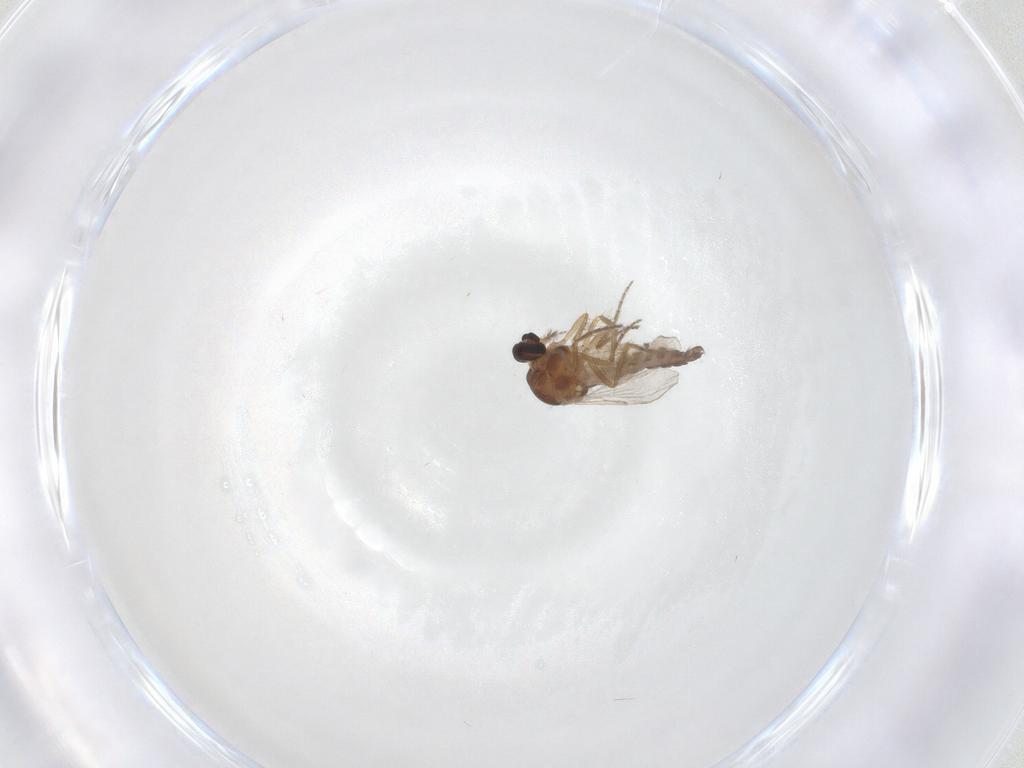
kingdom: Animalia
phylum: Arthropoda
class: Insecta
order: Diptera
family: Ceratopogonidae
